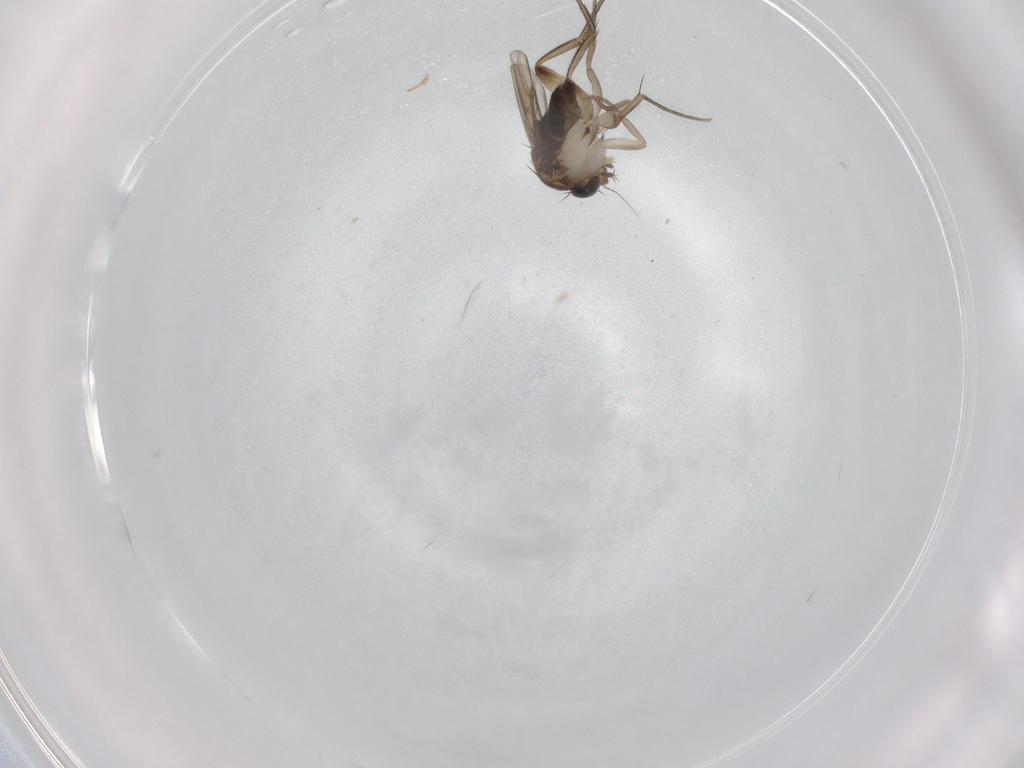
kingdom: Animalia
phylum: Arthropoda
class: Insecta
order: Diptera
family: Phoridae
